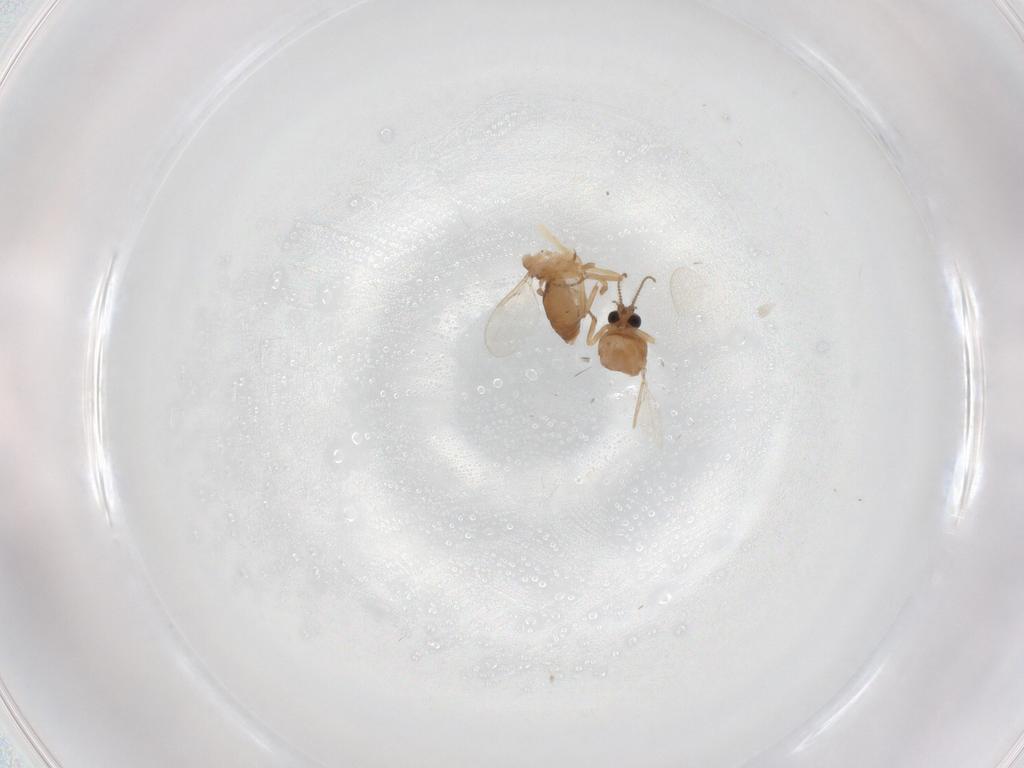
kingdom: Animalia
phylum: Arthropoda
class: Insecta
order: Diptera
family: Ceratopogonidae
